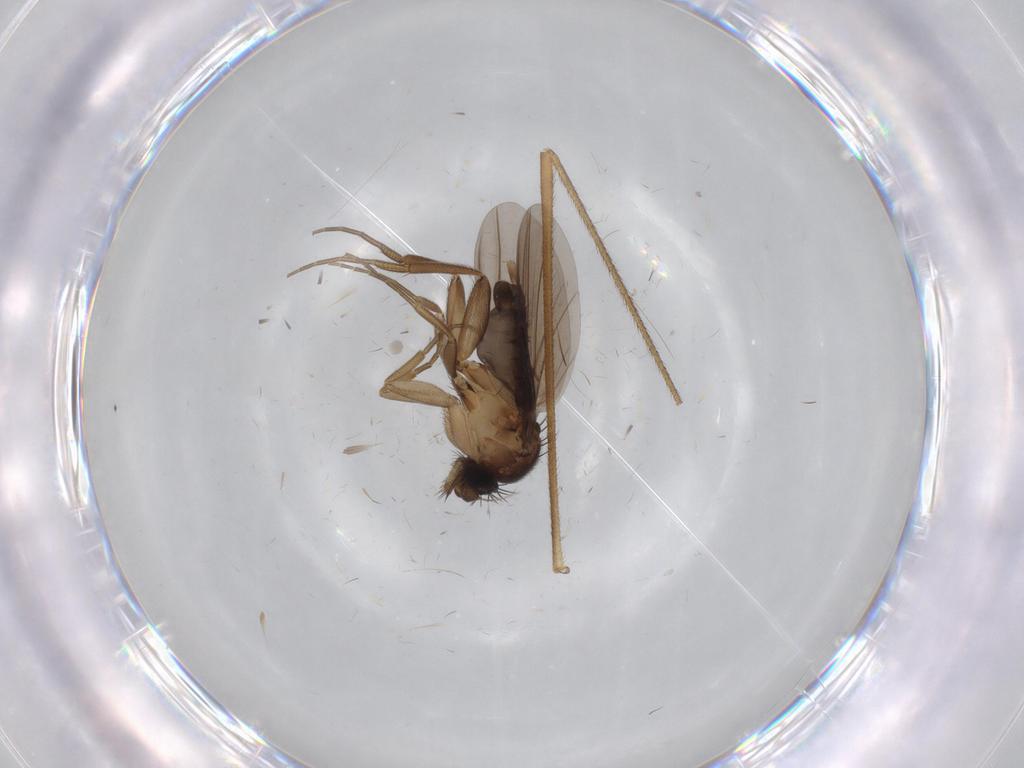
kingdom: Animalia
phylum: Arthropoda
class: Insecta
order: Diptera
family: Phoridae
